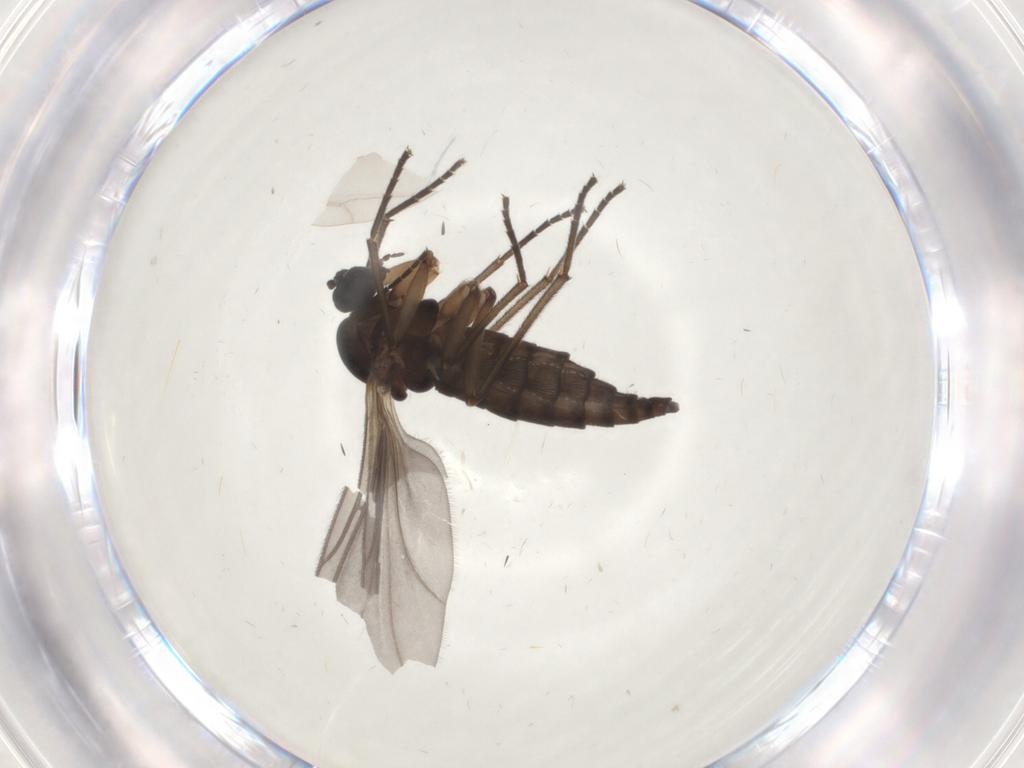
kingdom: Animalia
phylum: Arthropoda
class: Insecta
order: Diptera
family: Sciaridae
